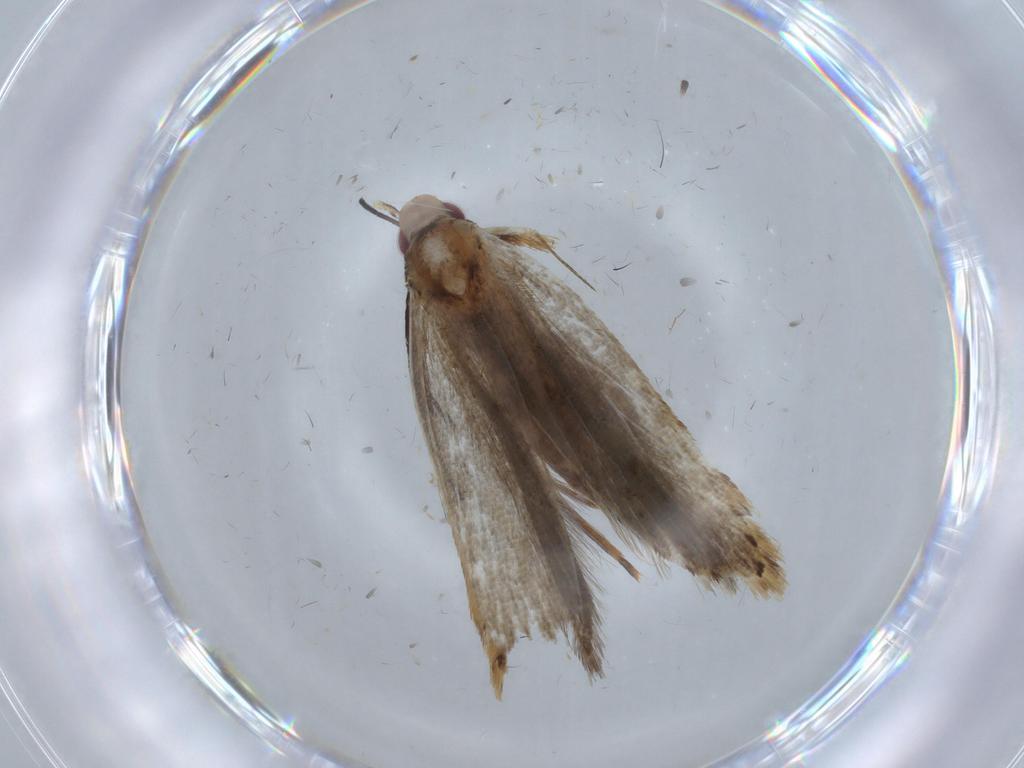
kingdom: Animalia
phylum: Arthropoda
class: Insecta
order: Lepidoptera
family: Gelechiidae
